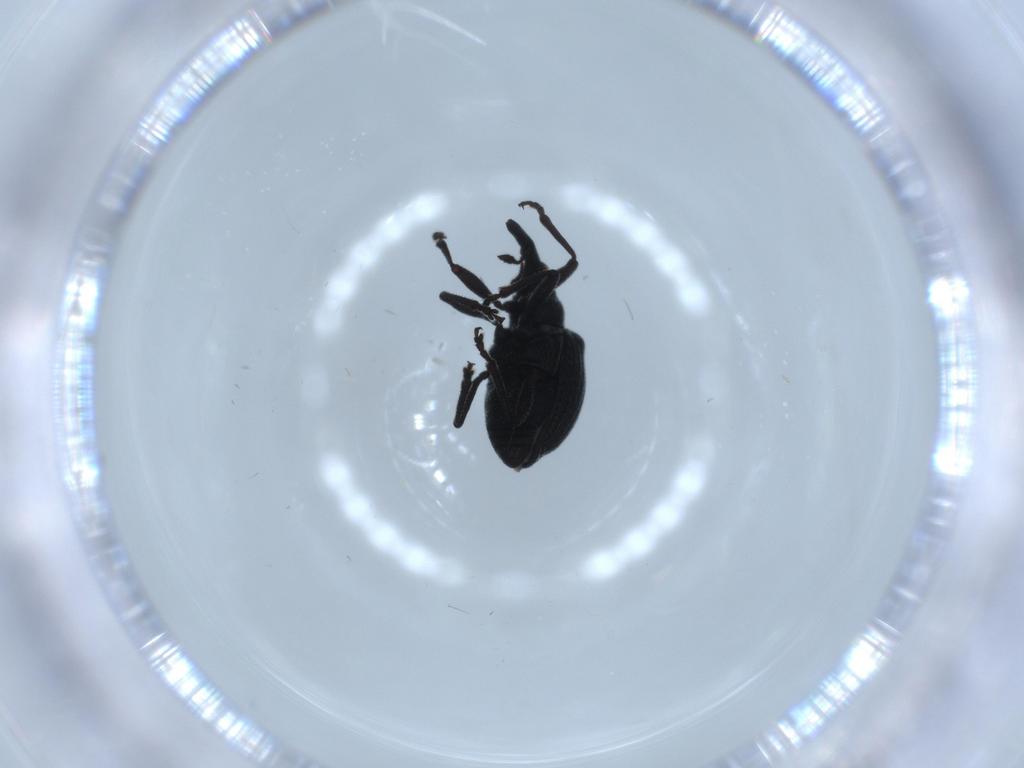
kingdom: Animalia
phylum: Arthropoda
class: Insecta
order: Coleoptera
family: Brentidae
